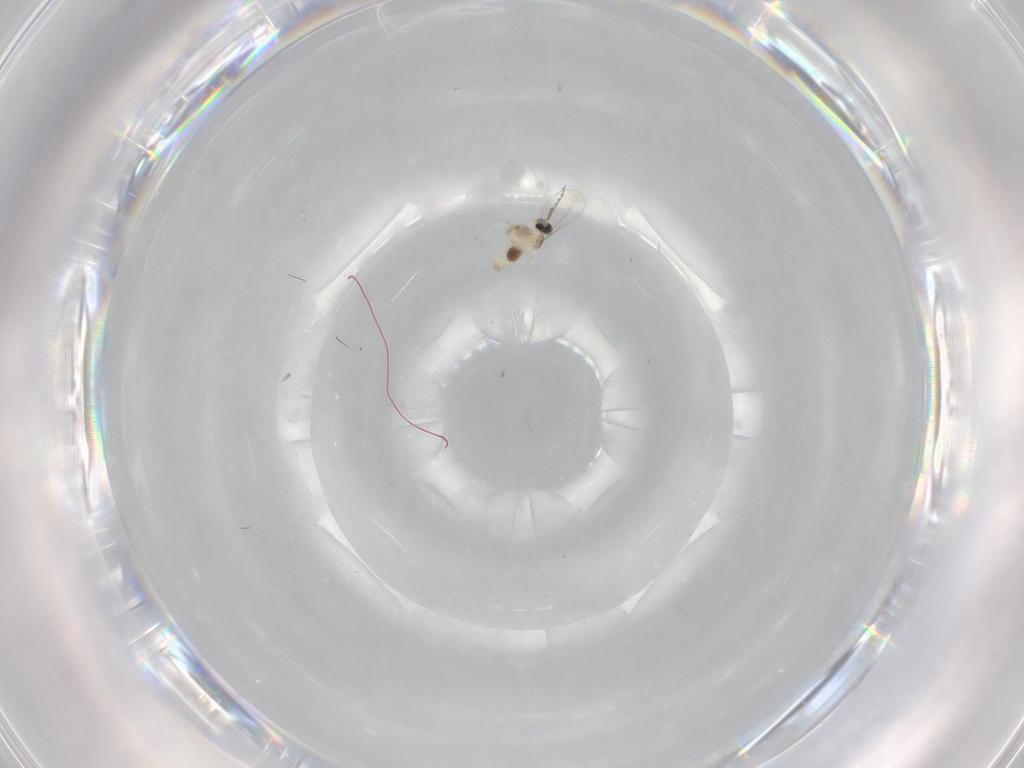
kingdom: Animalia
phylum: Arthropoda
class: Insecta
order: Diptera
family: Cecidomyiidae
